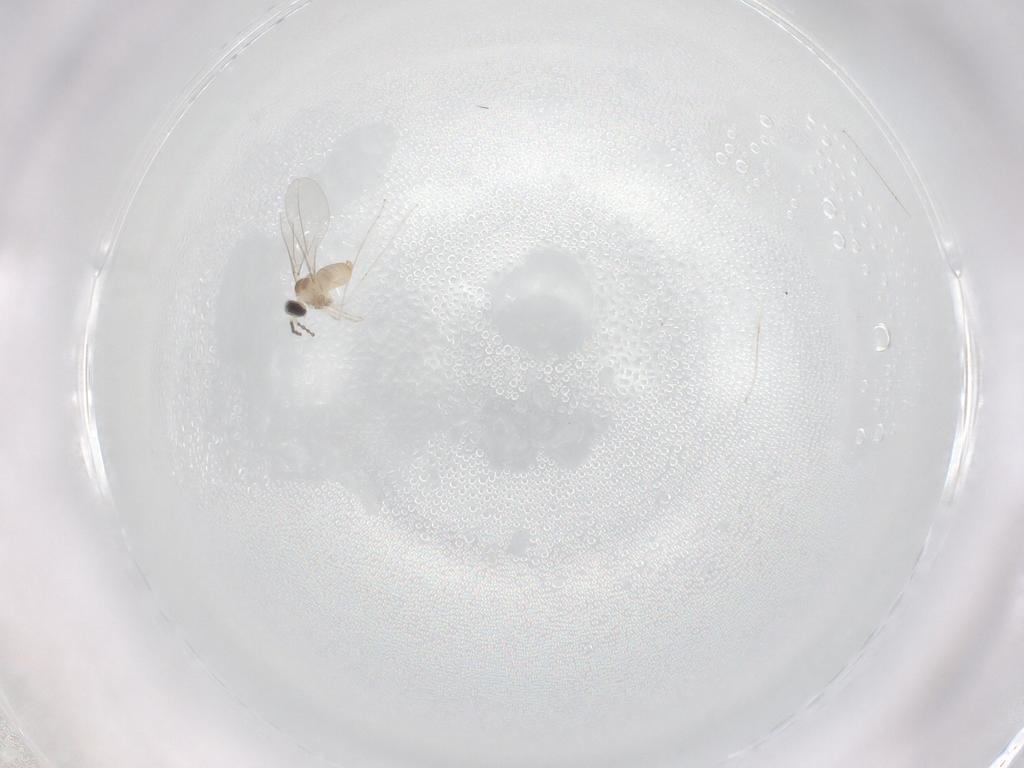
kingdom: Animalia
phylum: Arthropoda
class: Insecta
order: Diptera
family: Cecidomyiidae
